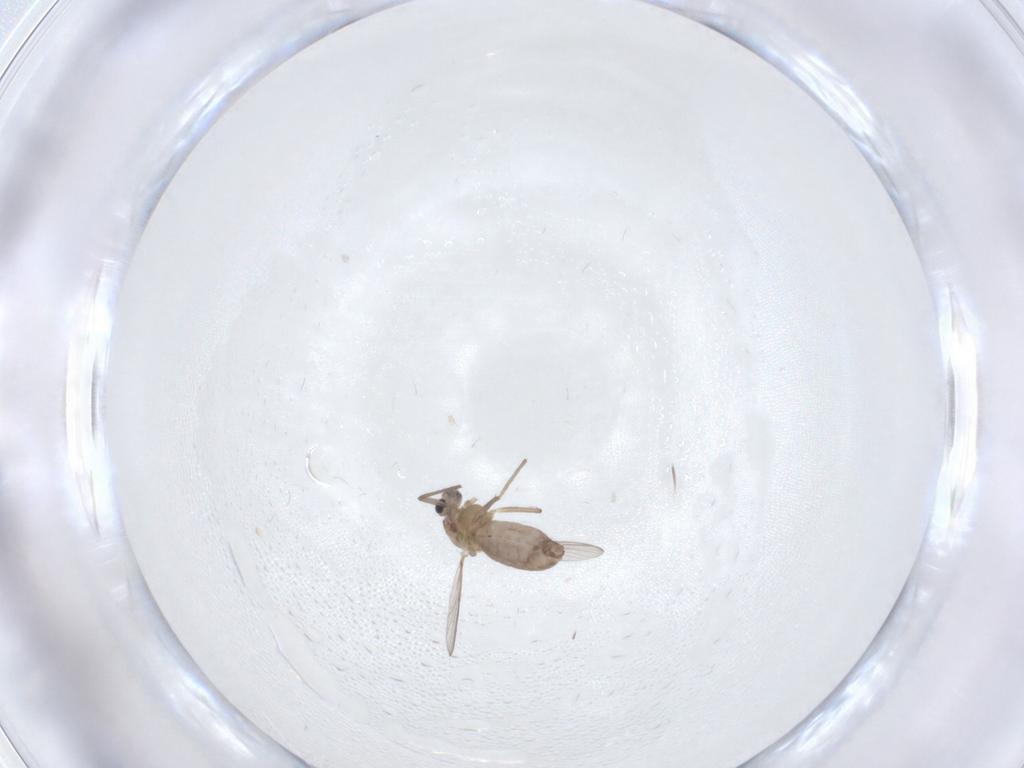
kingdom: Animalia
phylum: Arthropoda
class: Insecta
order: Diptera
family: Chironomidae
